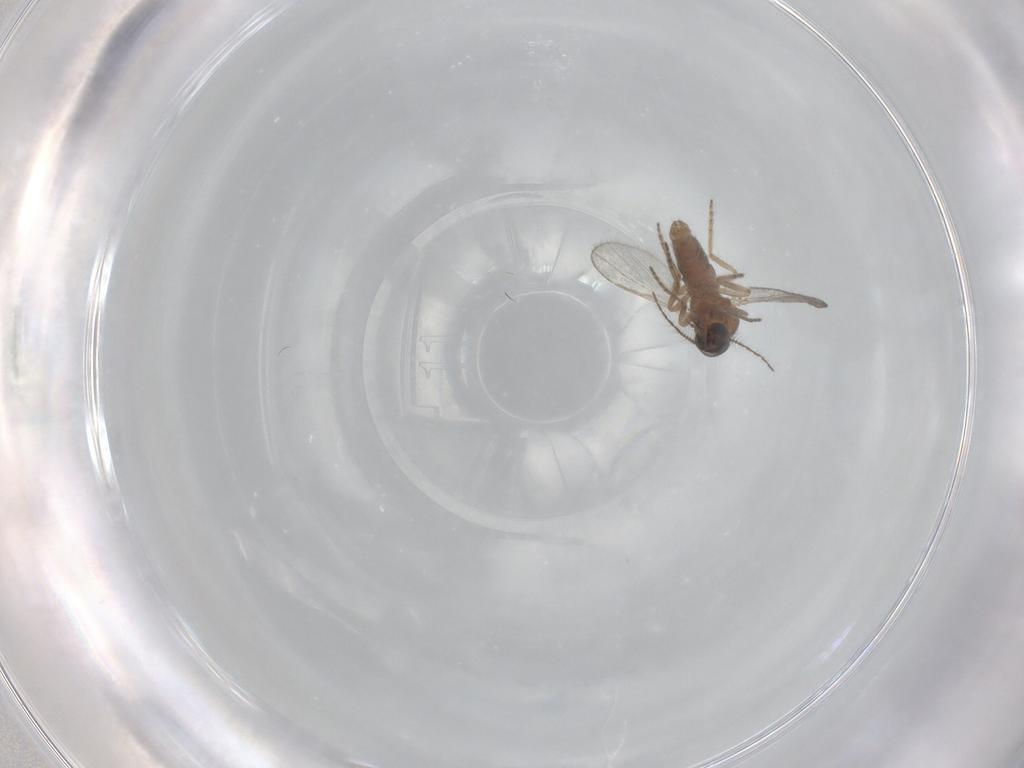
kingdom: Animalia
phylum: Arthropoda
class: Insecta
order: Diptera
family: Ceratopogonidae
